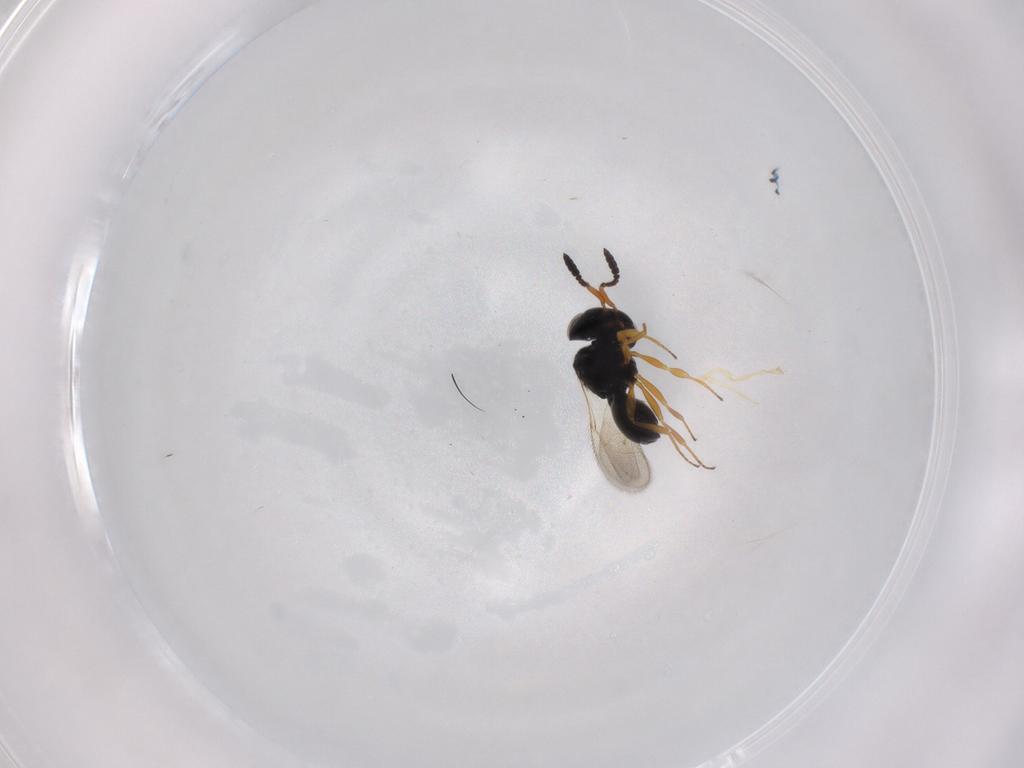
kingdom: Animalia
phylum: Arthropoda
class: Insecta
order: Hymenoptera
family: Scelionidae
